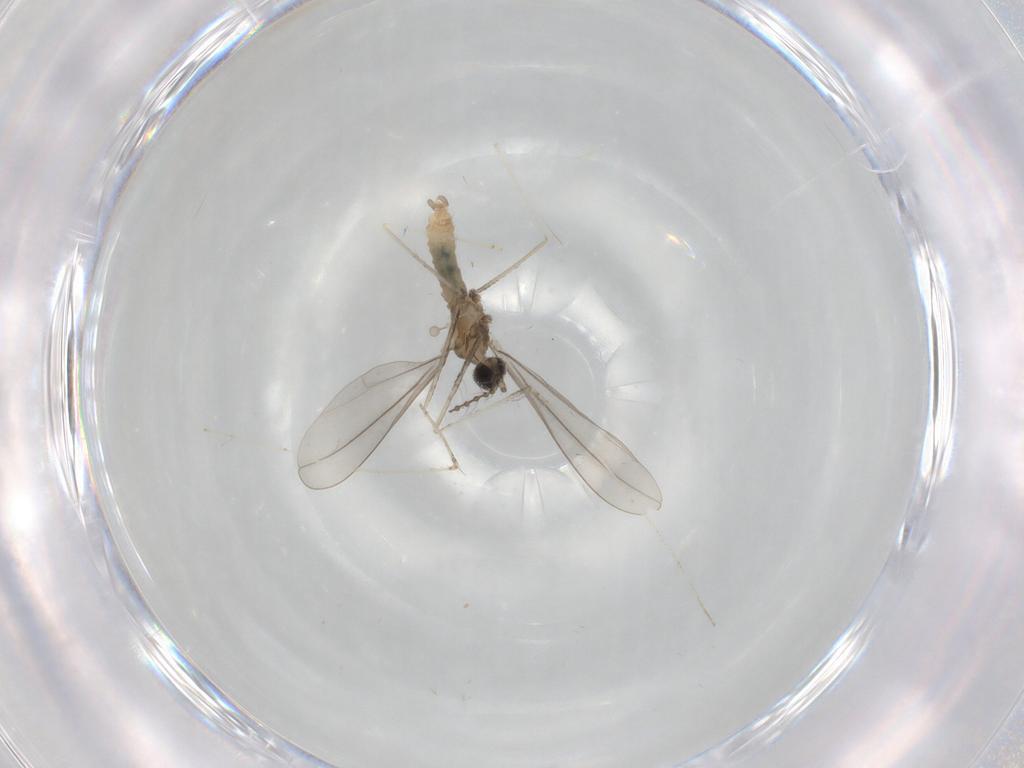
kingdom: Animalia
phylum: Arthropoda
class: Insecta
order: Diptera
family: Cecidomyiidae
